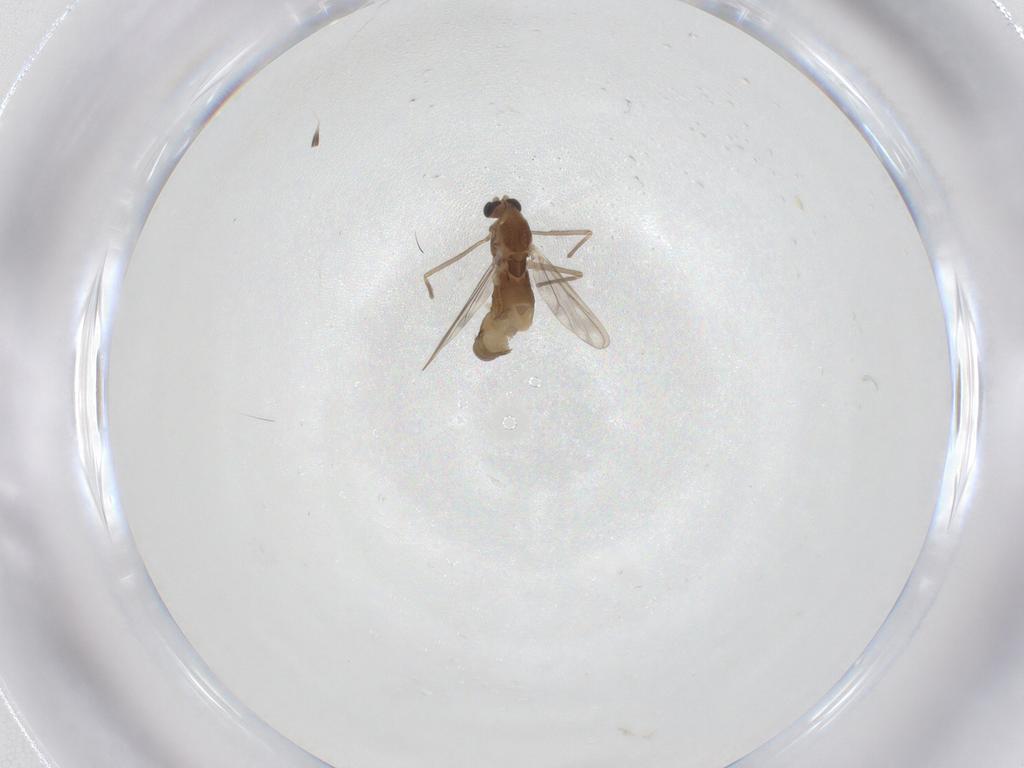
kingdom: Animalia
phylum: Arthropoda
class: Insecta
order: Diptera
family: Chironomidae
